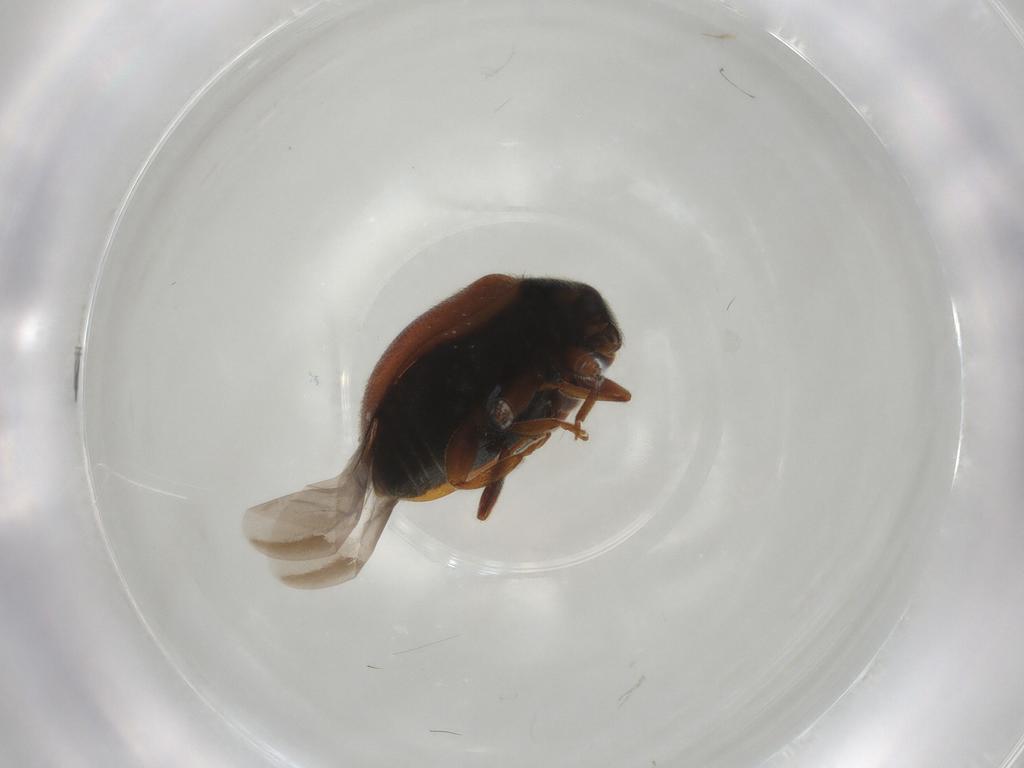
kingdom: Animalia
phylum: Arthropoda
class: Insecta
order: Coleoptera
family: Coccinellidae
